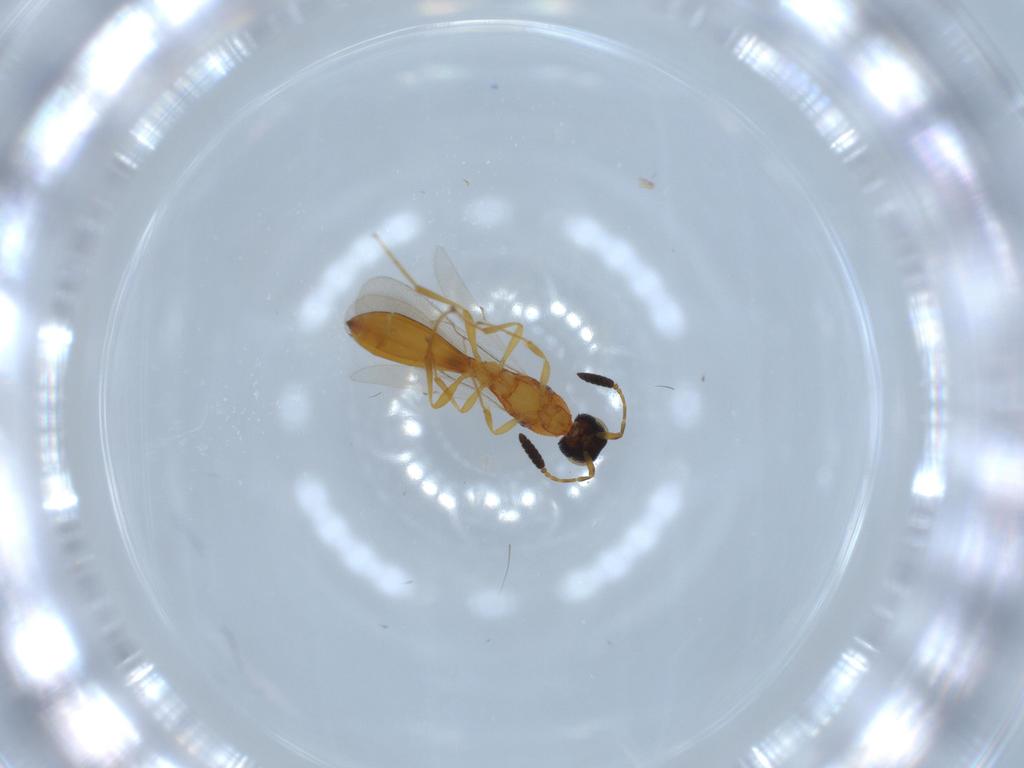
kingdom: Animalia
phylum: Arthropoda
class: Insecta
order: Hymenoptera
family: Scelionidae
